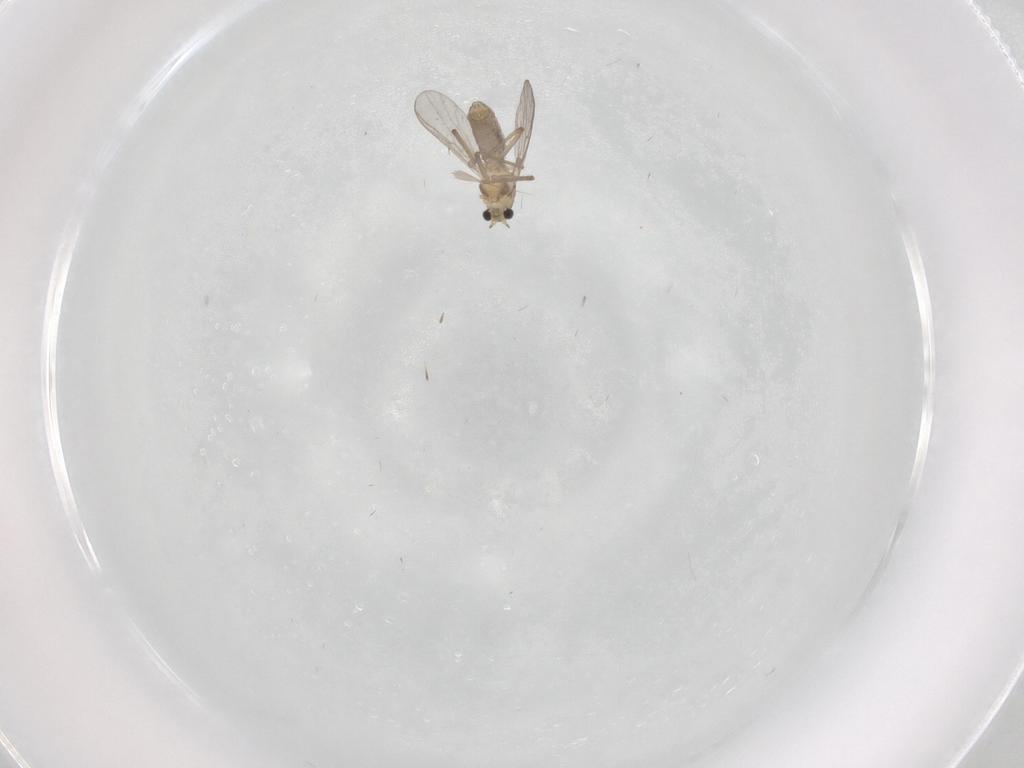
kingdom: Animalia
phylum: Arthropoda
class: Insecta
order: Diptera
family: Chironomidae
